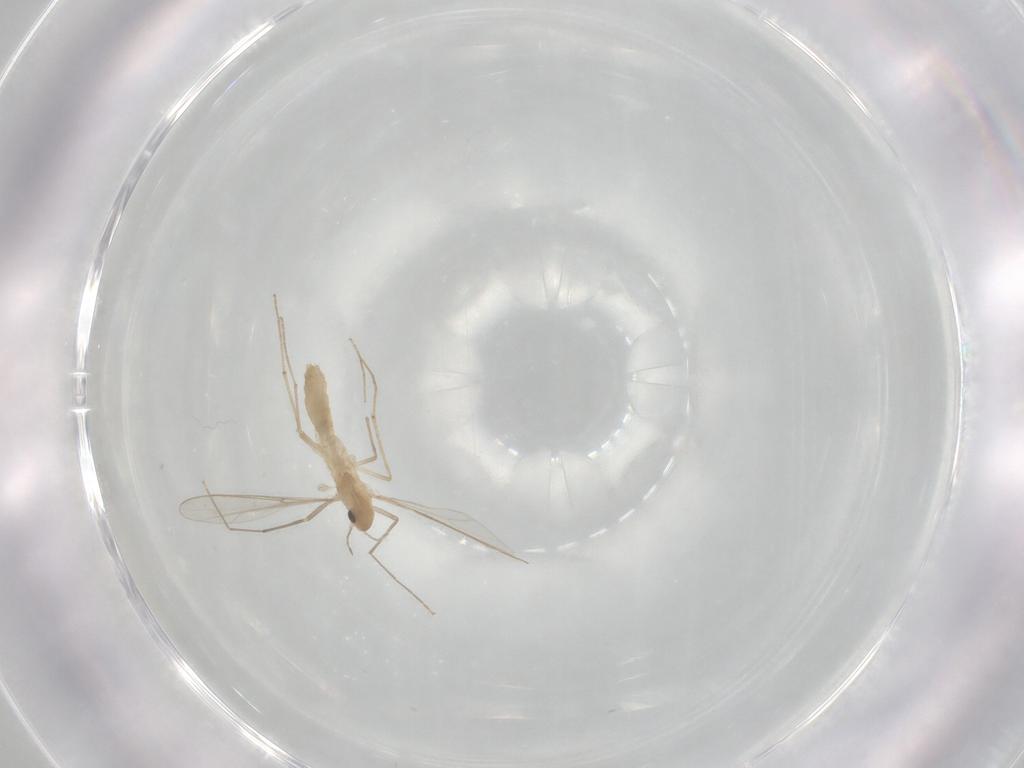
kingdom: Animalia
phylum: Arthropoda
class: Insecta
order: Diptera
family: Chironomidae
